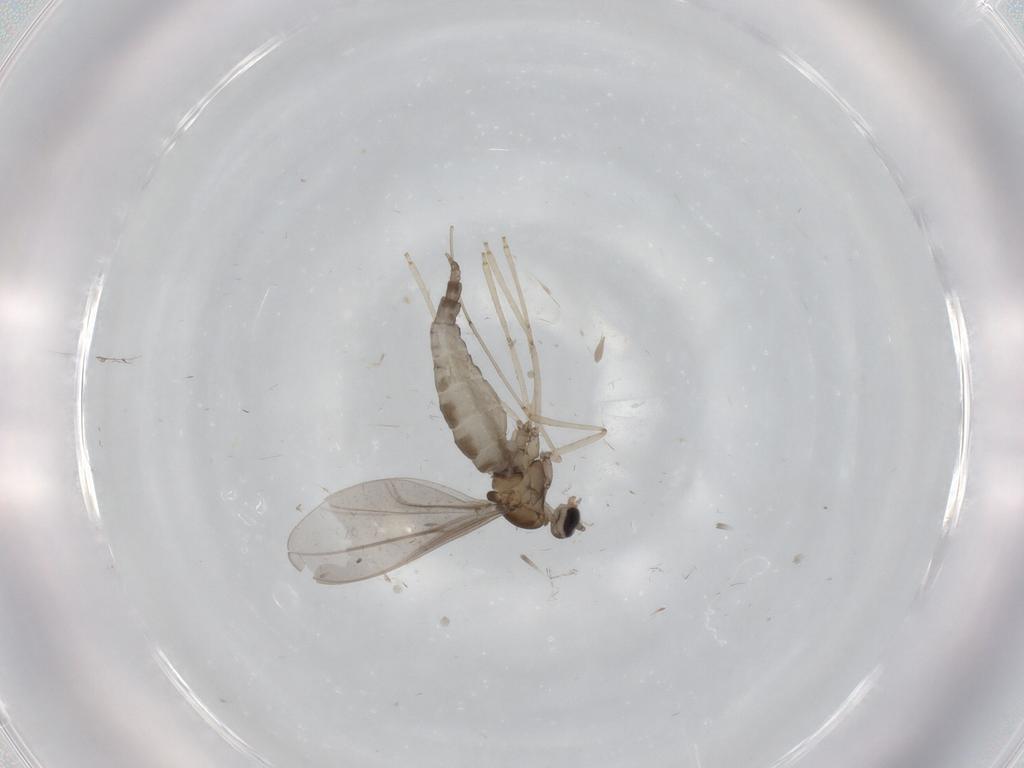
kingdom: Animalia
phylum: Arthropoda
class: Insecta
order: Diptera
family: Cecidomyiidae
